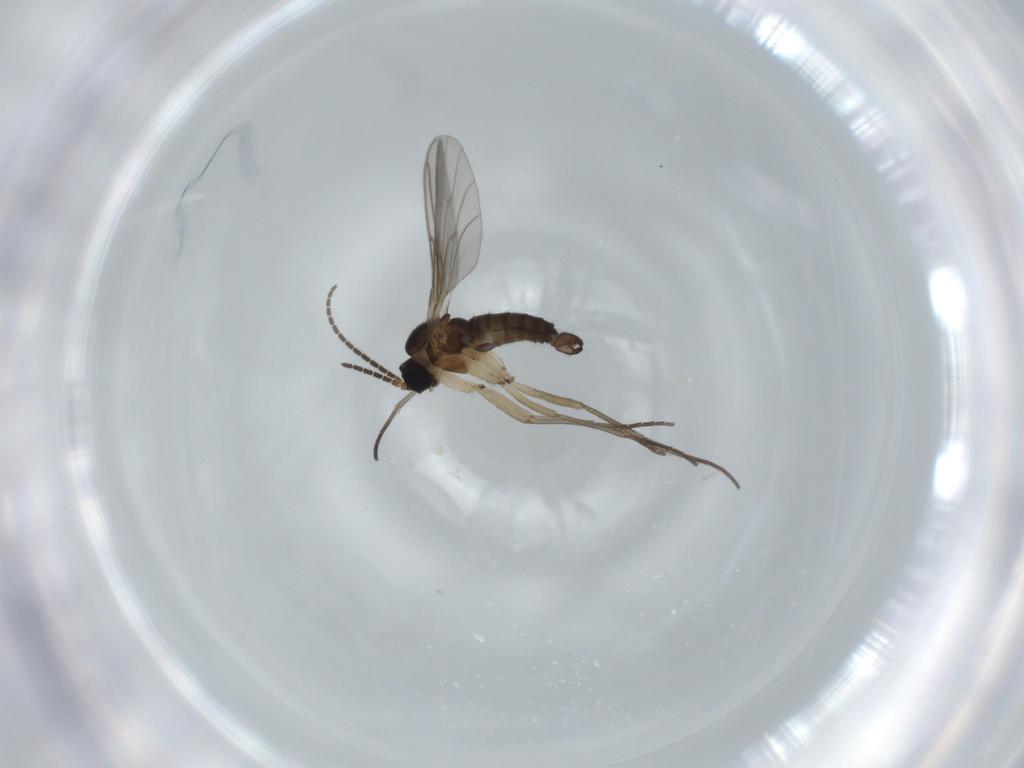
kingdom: Animalia
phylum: Arthropoda
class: Insecta
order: Diptera
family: Sciaridae
